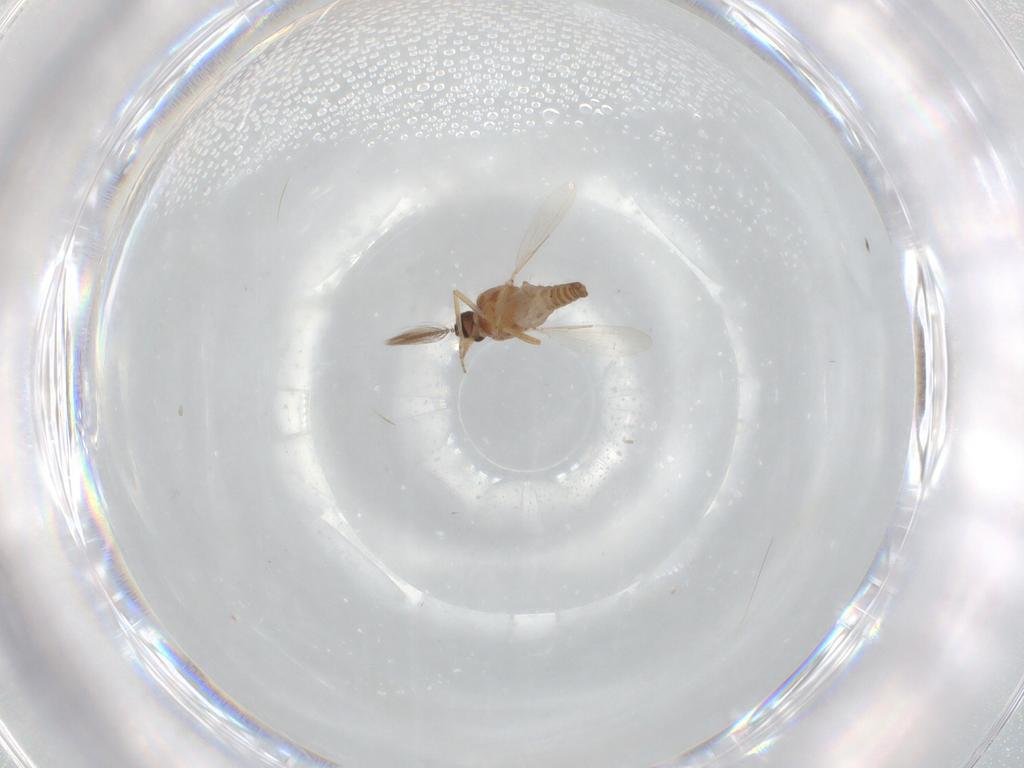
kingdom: Animalia
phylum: Arthropoda
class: Insecta
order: Diptera
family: Ceratopogonidae
